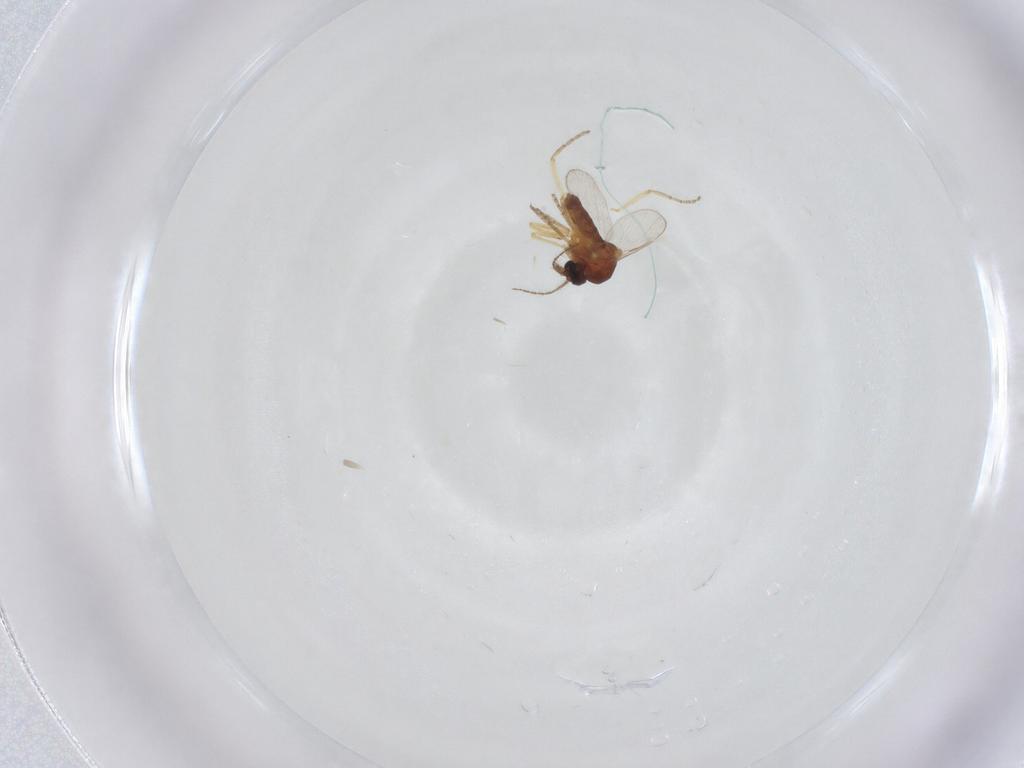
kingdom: Animalia
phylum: Arthropoda
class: Insecta
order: Diptera
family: Ceratopogonidae
